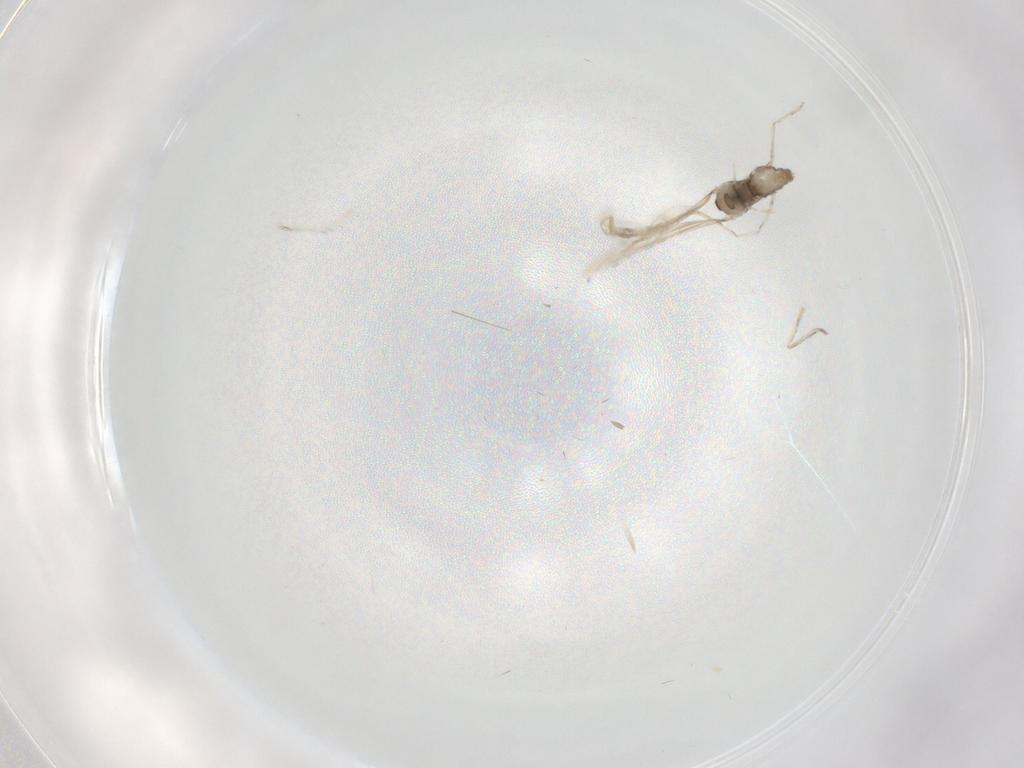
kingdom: Animalia
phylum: Arthropoda
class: Insecta
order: Diptera
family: Cecidomyiidae
